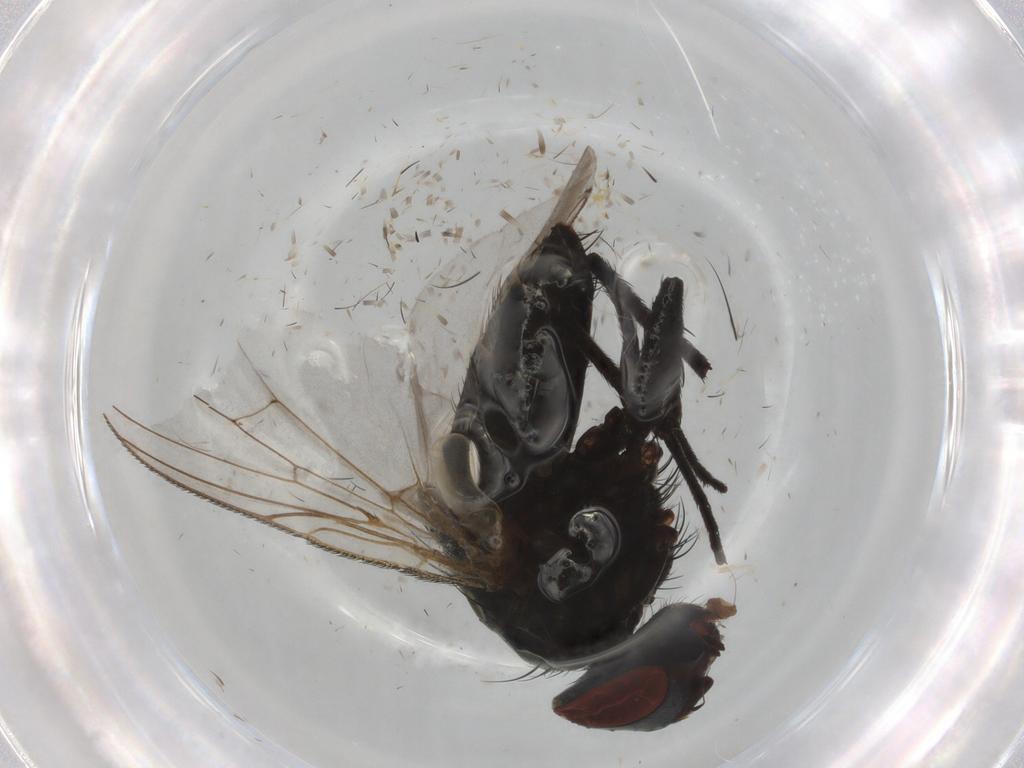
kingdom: Animalia
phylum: Arthropoda
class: Insecta
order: Diptera
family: Sarcophagidae
